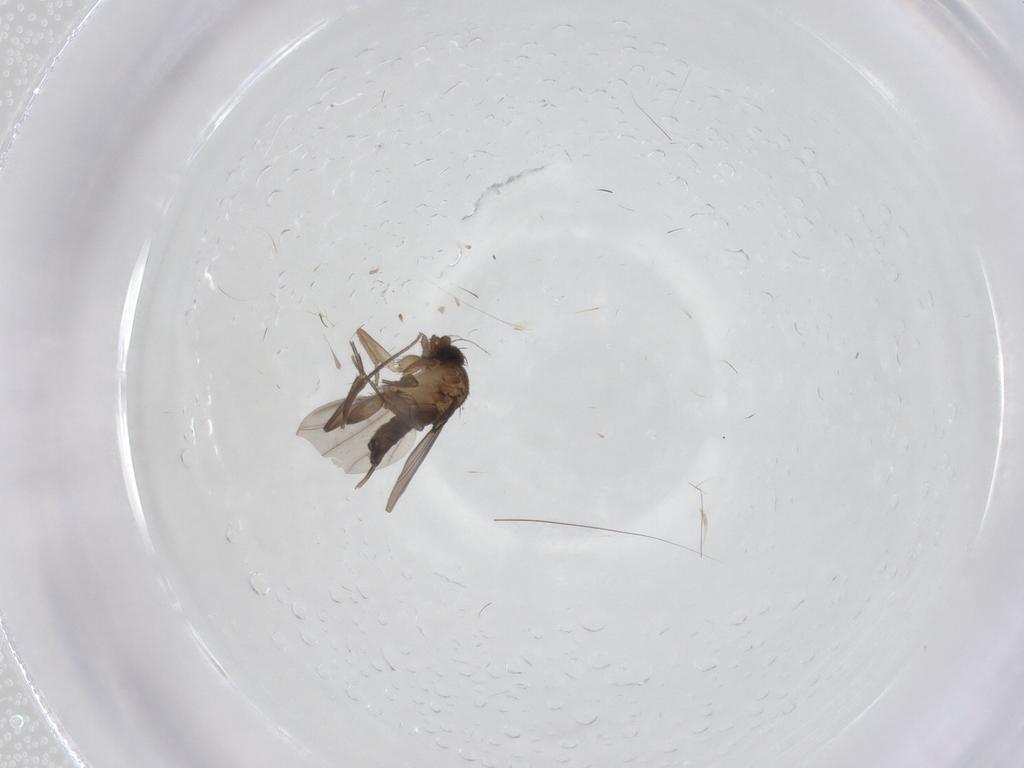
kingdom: Animalia
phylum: Arthropoda
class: Insecta
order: Diptera
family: Phoridae
